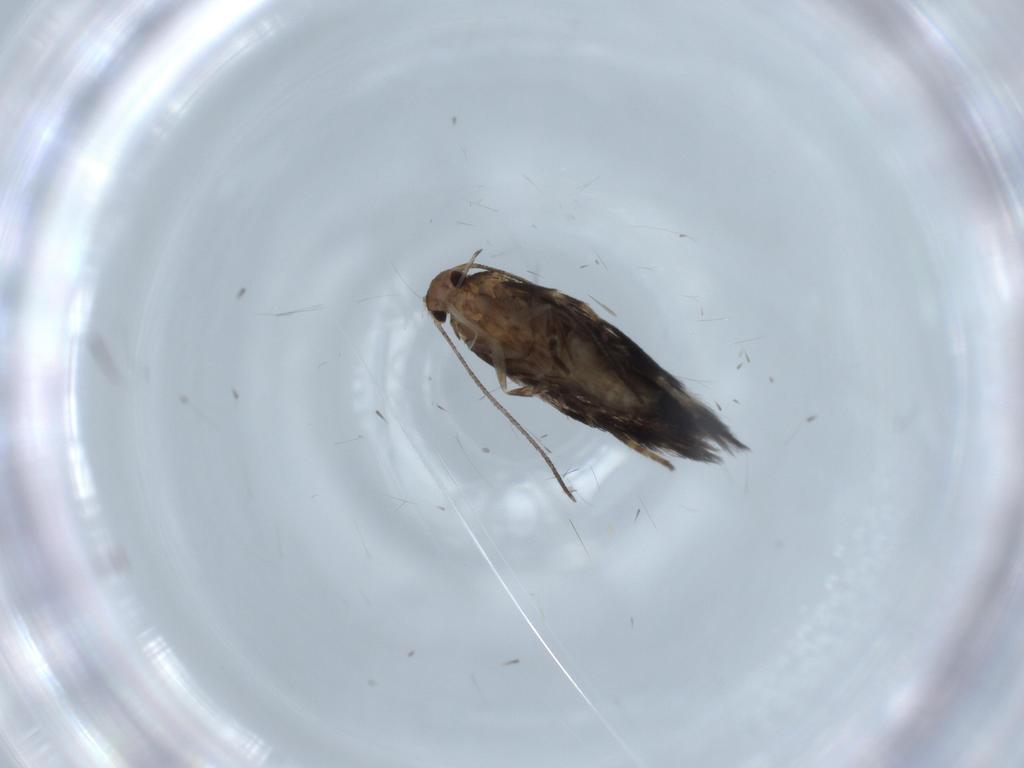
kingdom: Animalia
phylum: Arthropoda
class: Insecta
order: Lepidoptera
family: Elachistidae
